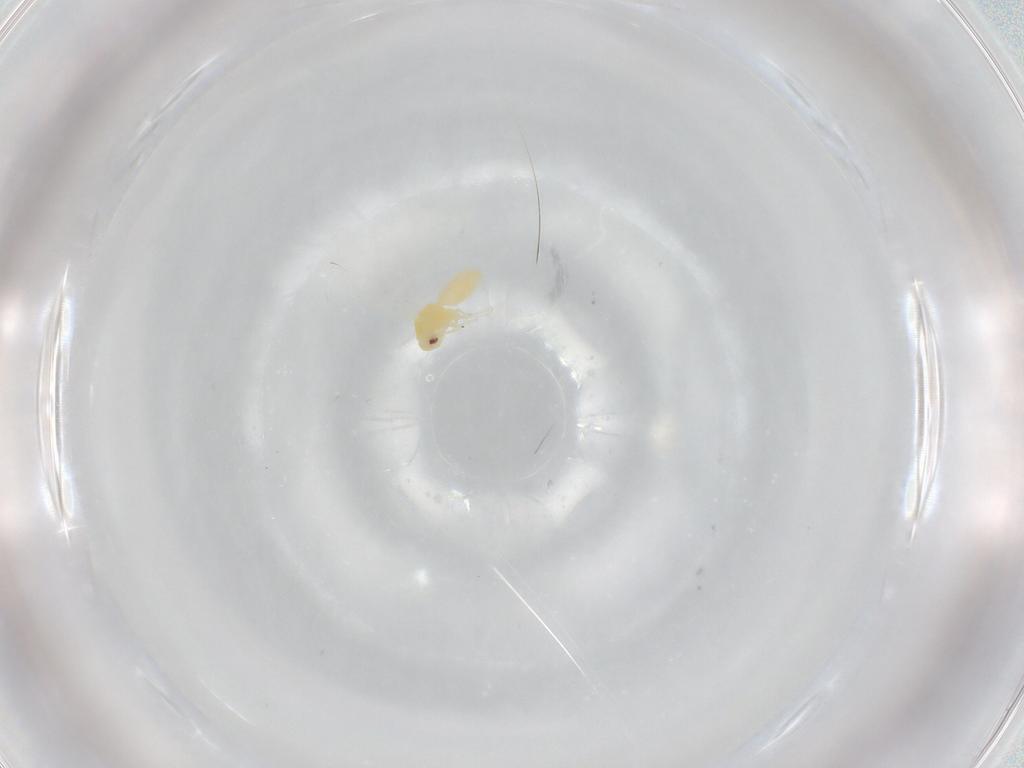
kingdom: Animalia
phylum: Arthropoda
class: Insecta
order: Hemiptera
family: Aleyrodidae
